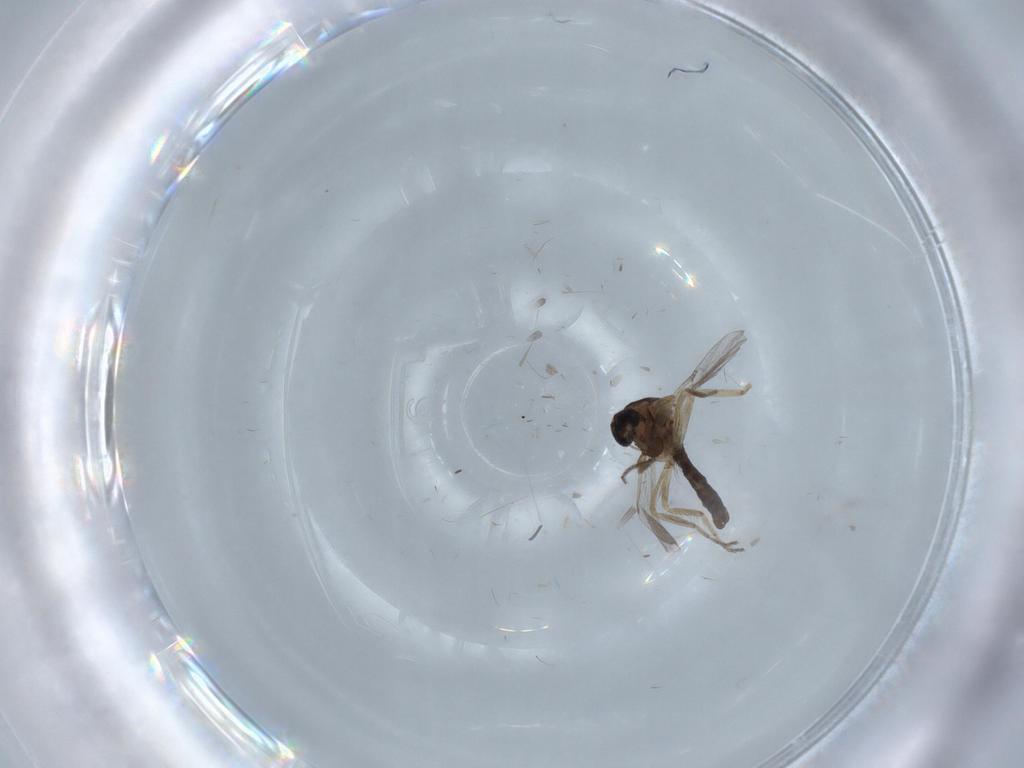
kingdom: Animalia
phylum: Arthropoda
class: Insecta
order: Diptera
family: Ceratopogonidae
